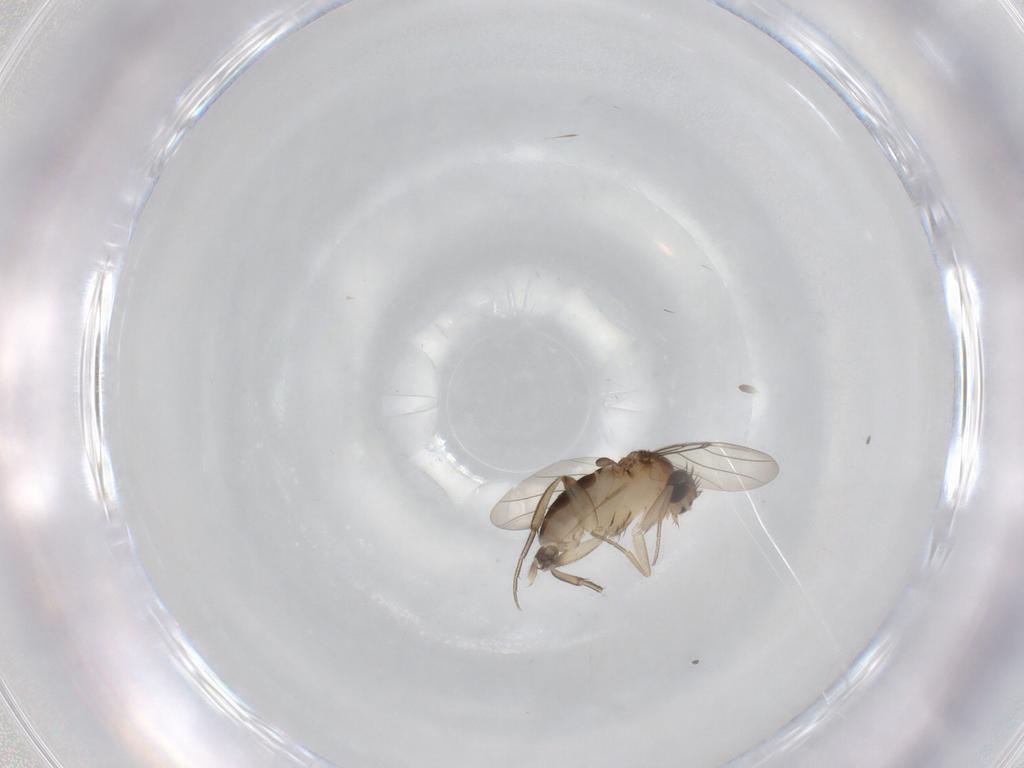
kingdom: Animalia
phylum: Arthropoda
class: Insecta
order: Diptera
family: Phoridae
